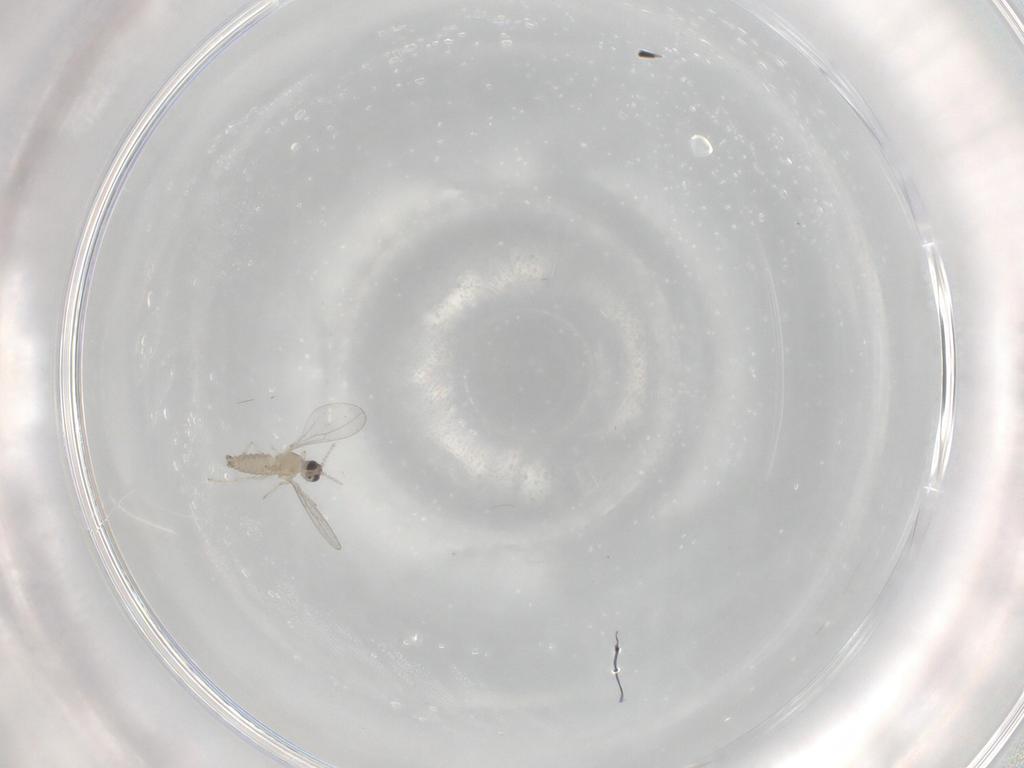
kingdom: Animalia
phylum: Arthropoda
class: Insecta
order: Diptera
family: Cecidomyiidae
